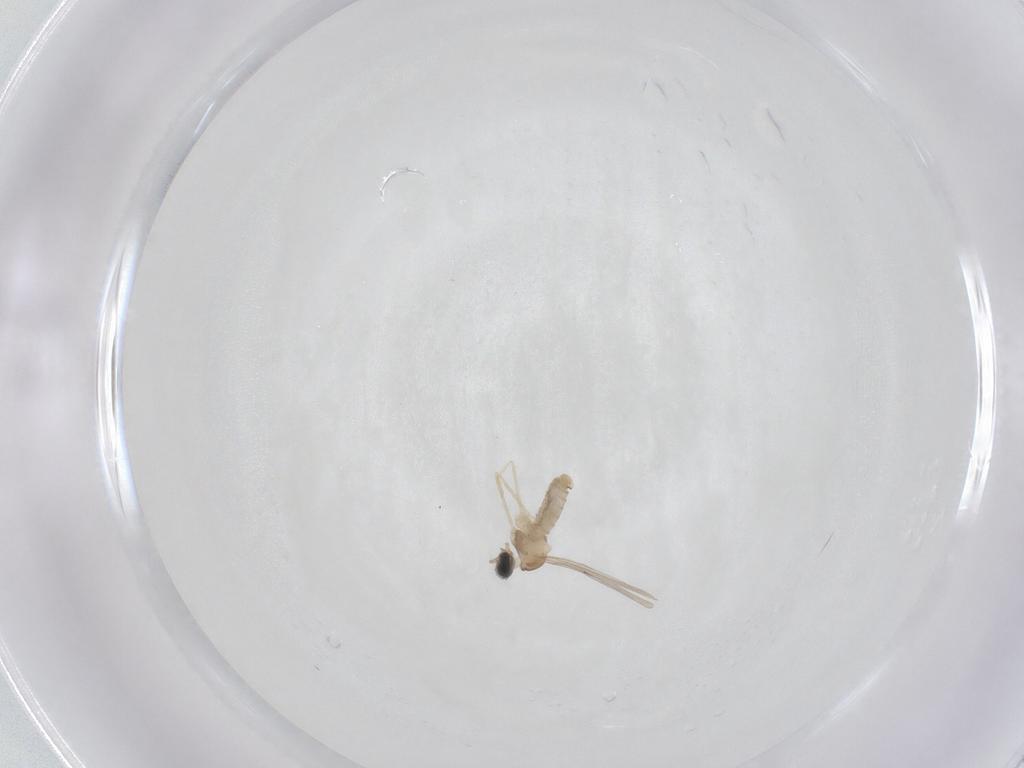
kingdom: Animalia
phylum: Arthropoda
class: Insecta
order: Diptera
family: Cecidomyiidae
